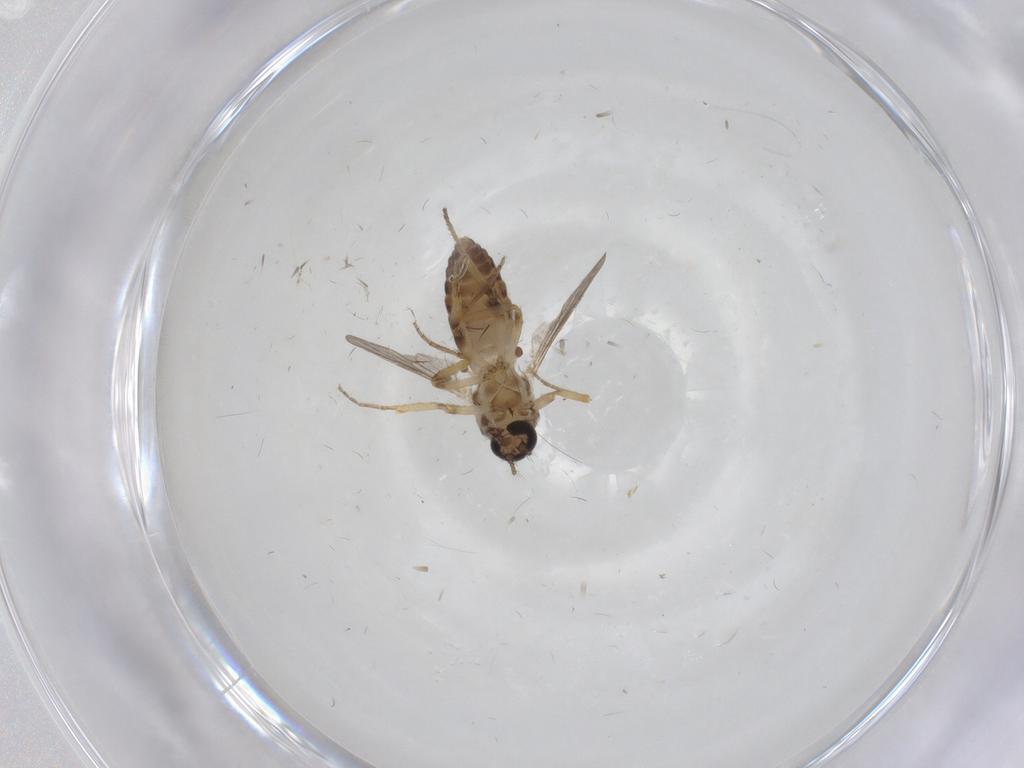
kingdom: Animalia
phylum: Arthropoda
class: Insecta
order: Diptera
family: Ceratopogonidae
